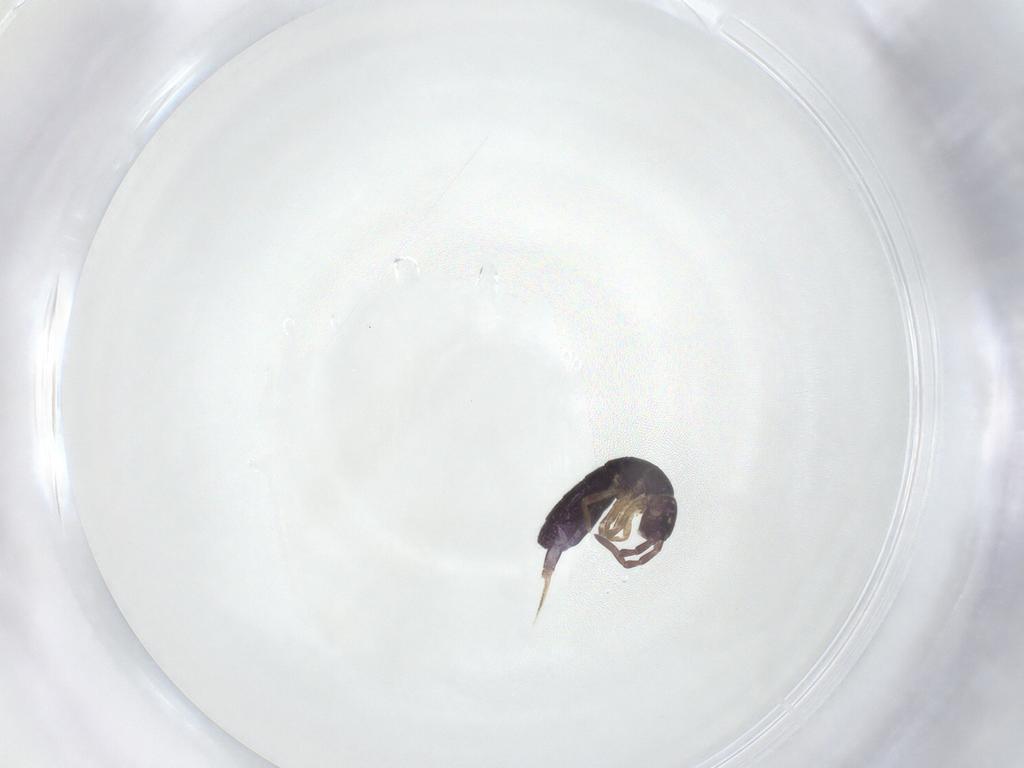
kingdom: Animalia
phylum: Arthropoda
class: Collembola
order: Entomobryomorpha
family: Isotomidae
